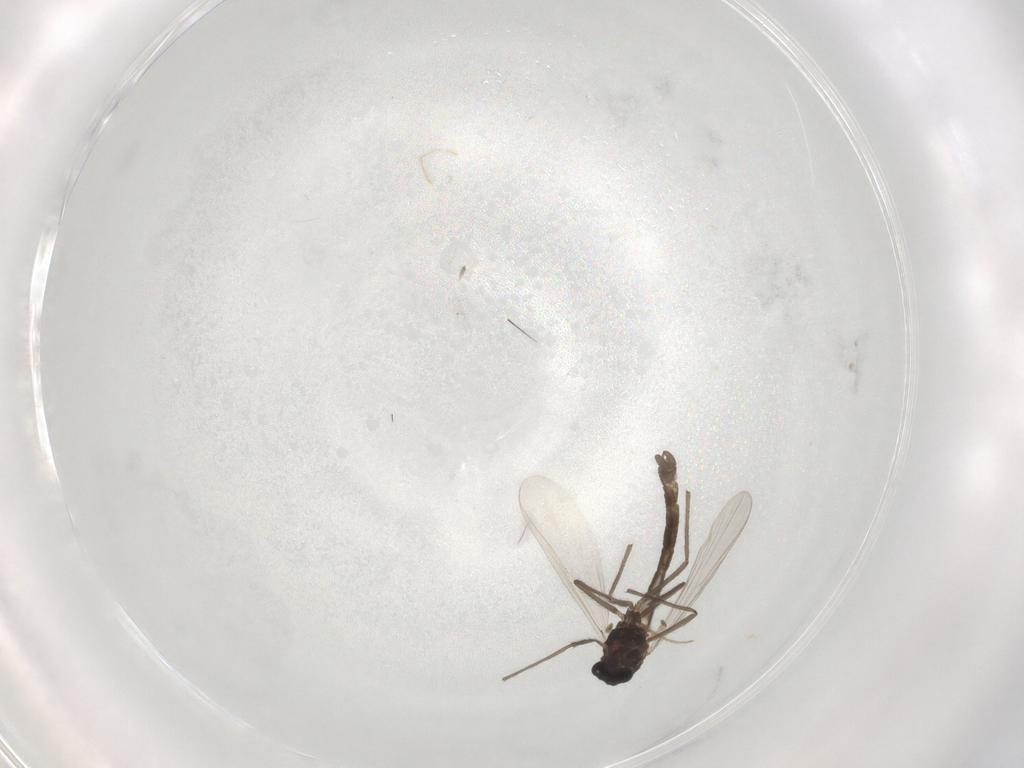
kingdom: Animalia
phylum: Arthropoda
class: Insecta
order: Diptera
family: Chironomidae
